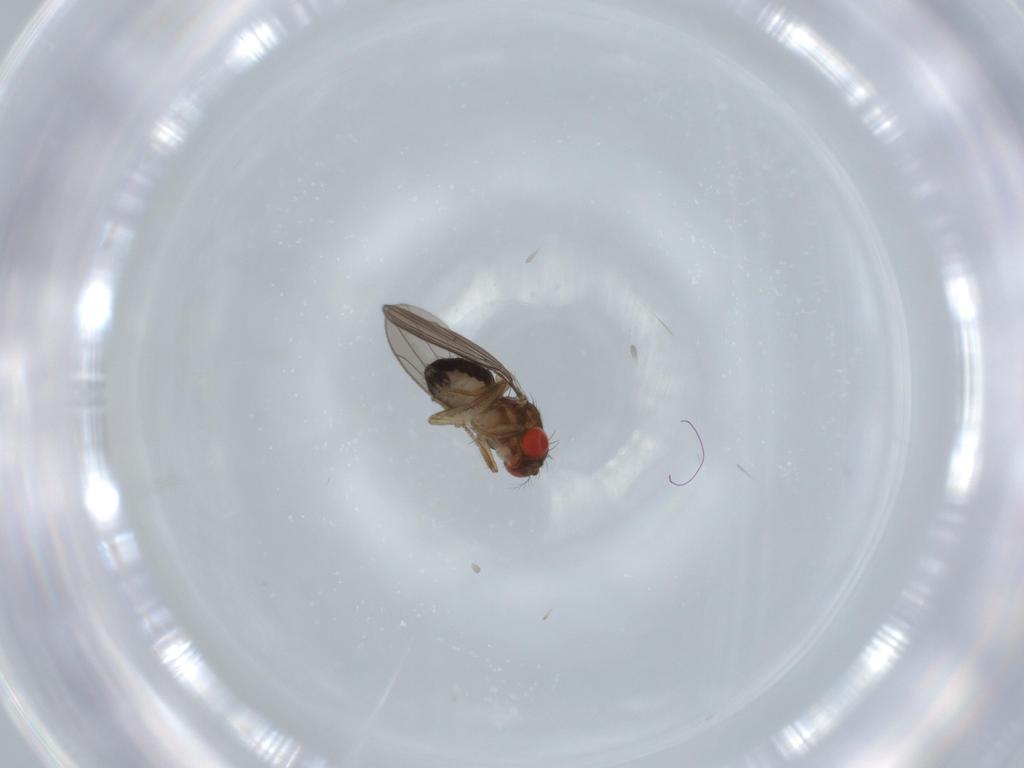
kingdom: Animalia
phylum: Arthropoda
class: Insecta
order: Diptera
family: Drosophilidae
